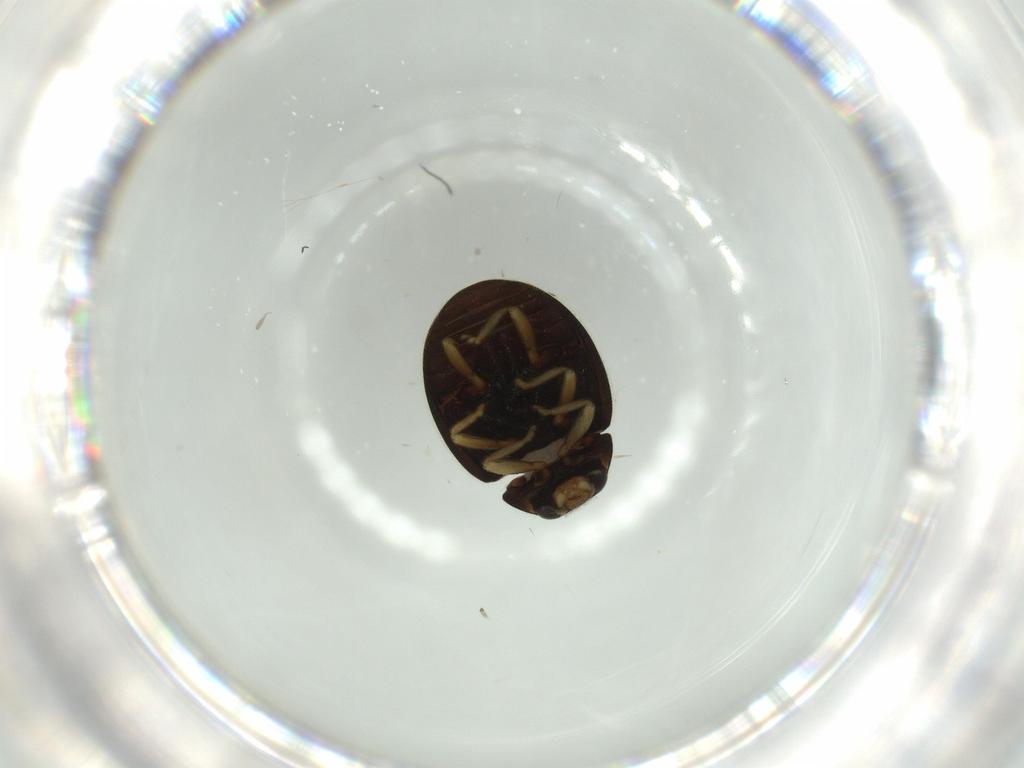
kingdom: Animalia
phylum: Arthropoda
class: Insecta
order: Coleoptera
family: Coccinellidae
